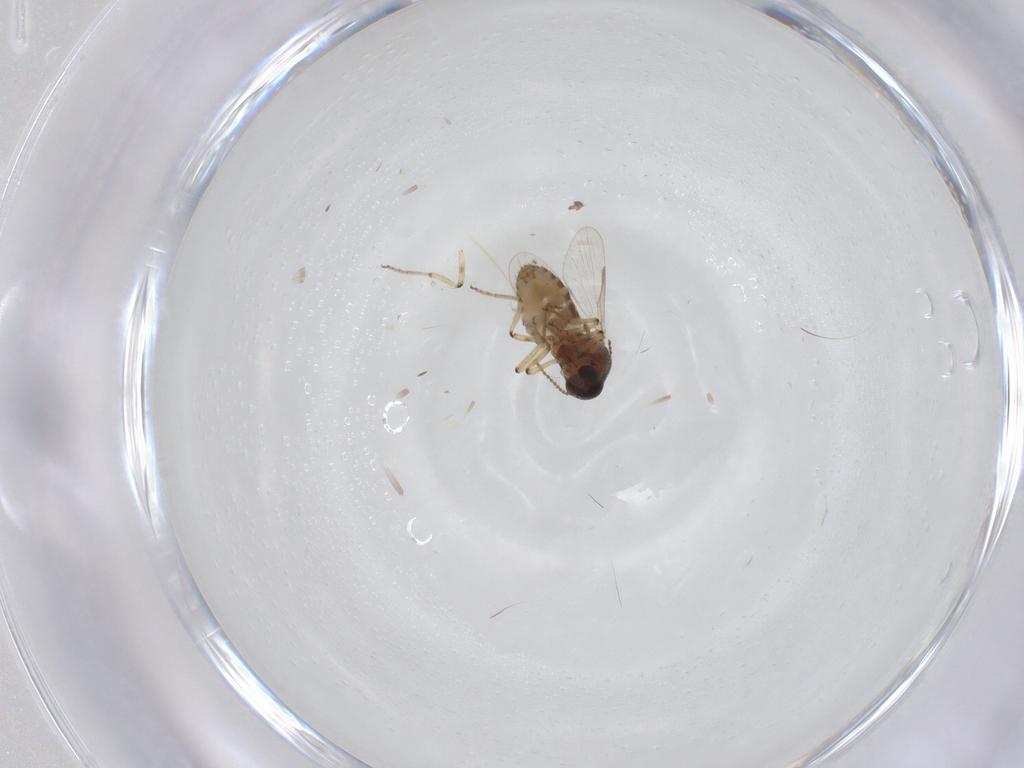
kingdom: Animalia
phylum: Arthropoda
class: Insecta
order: Diptera
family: Ceratopogonidae
